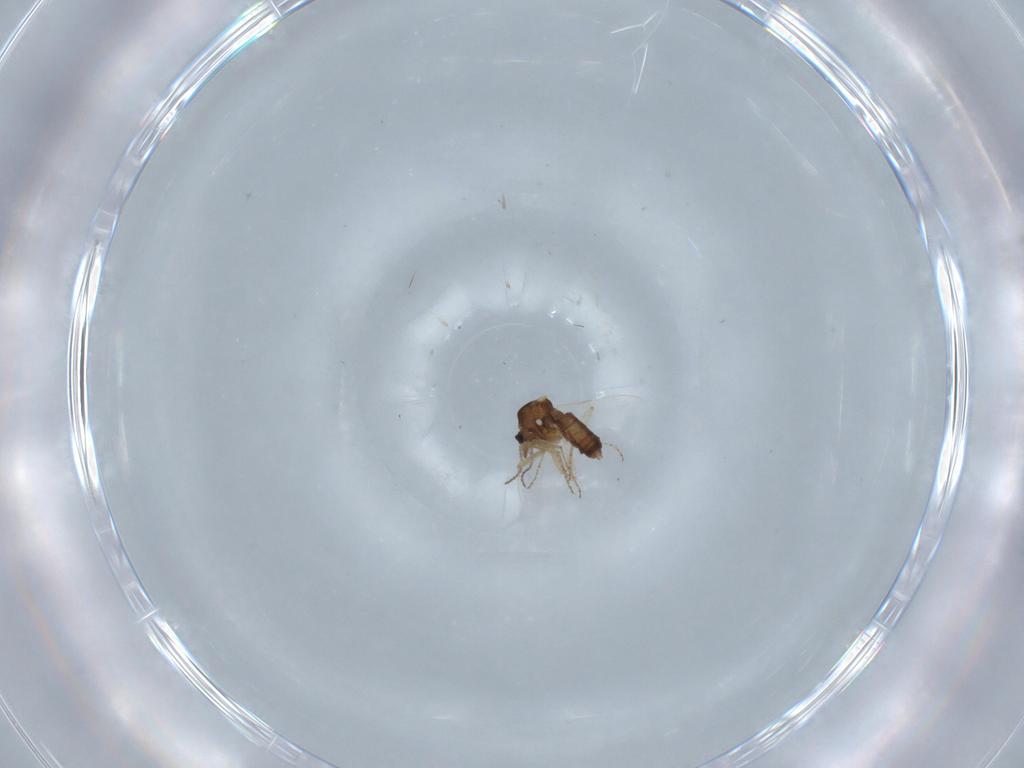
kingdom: Animalia
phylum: Arthropoda
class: Insecta
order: Diptera
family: Ceratopogonidae
